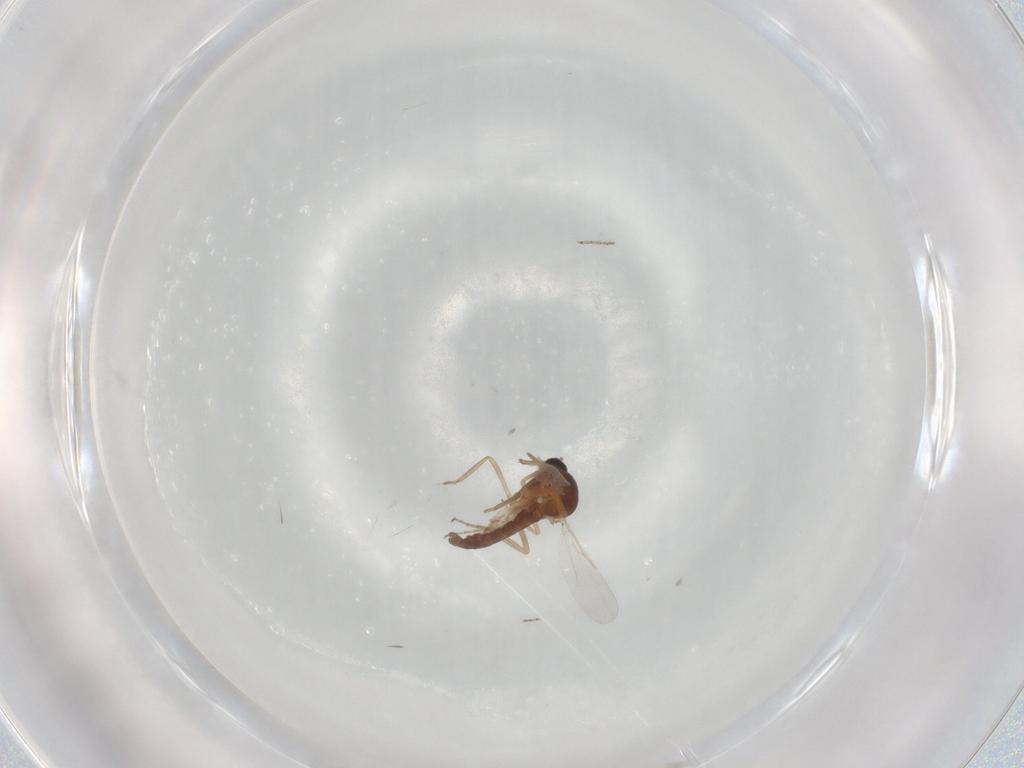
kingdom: Animalia
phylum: Arthropoda
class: Insecta
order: Diptera
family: Ceratopogonidae
